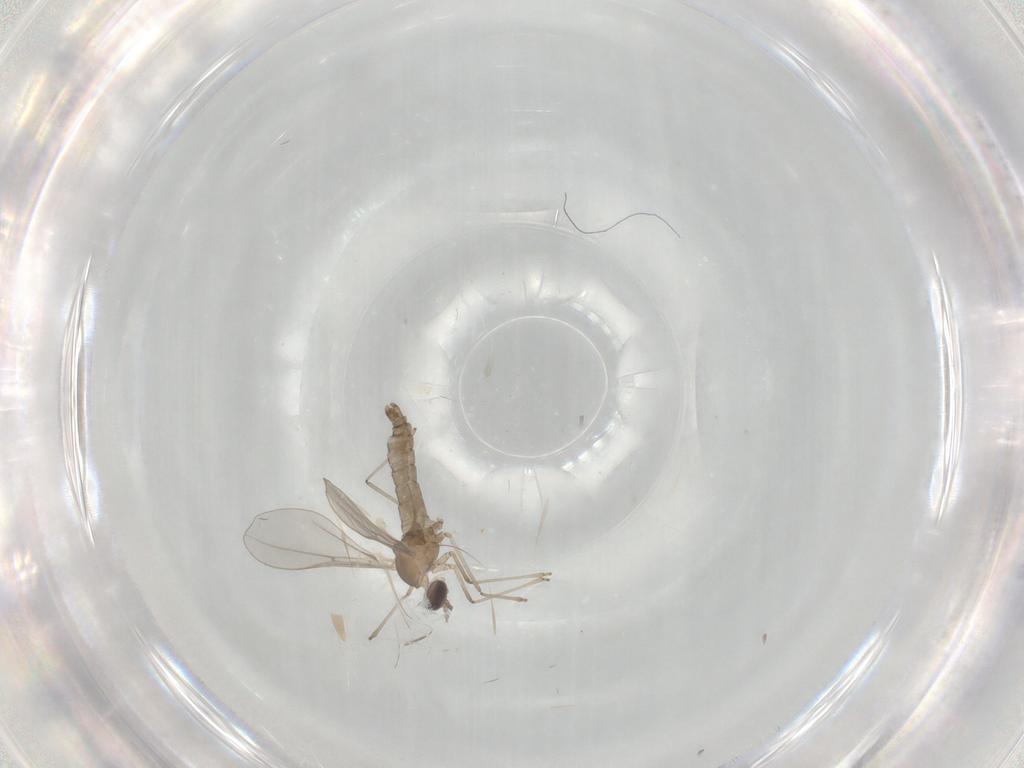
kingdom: Animalia
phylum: Arthropoda
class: Insecta
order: Diptera
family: Cecidomyiidae
